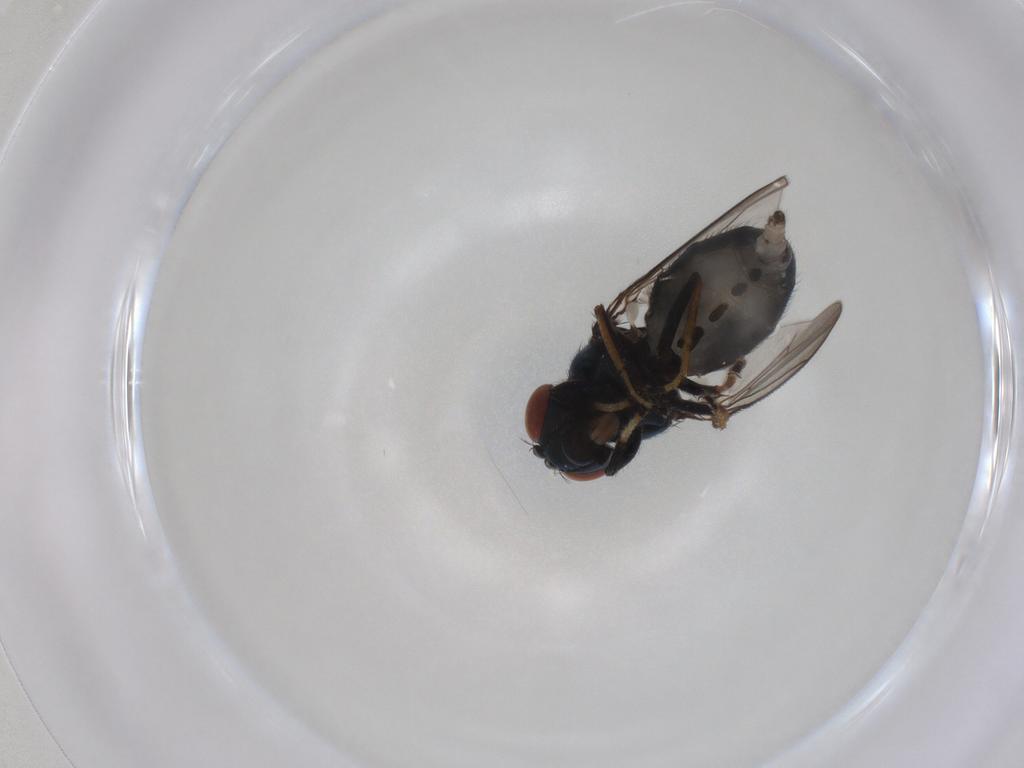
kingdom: Animalia
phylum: Arthropoda
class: Insecta
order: Diptera
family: Ephydridae
